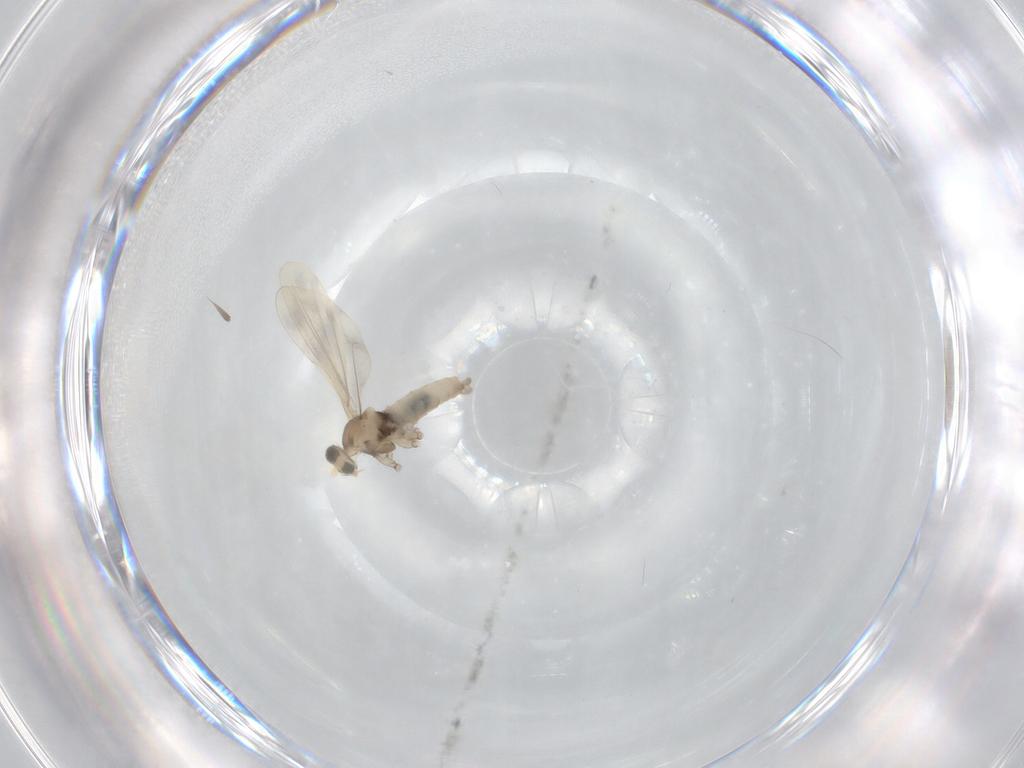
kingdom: Animalia
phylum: Arthropoda
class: Insecta
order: Diptera
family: Cecidomyiidae
